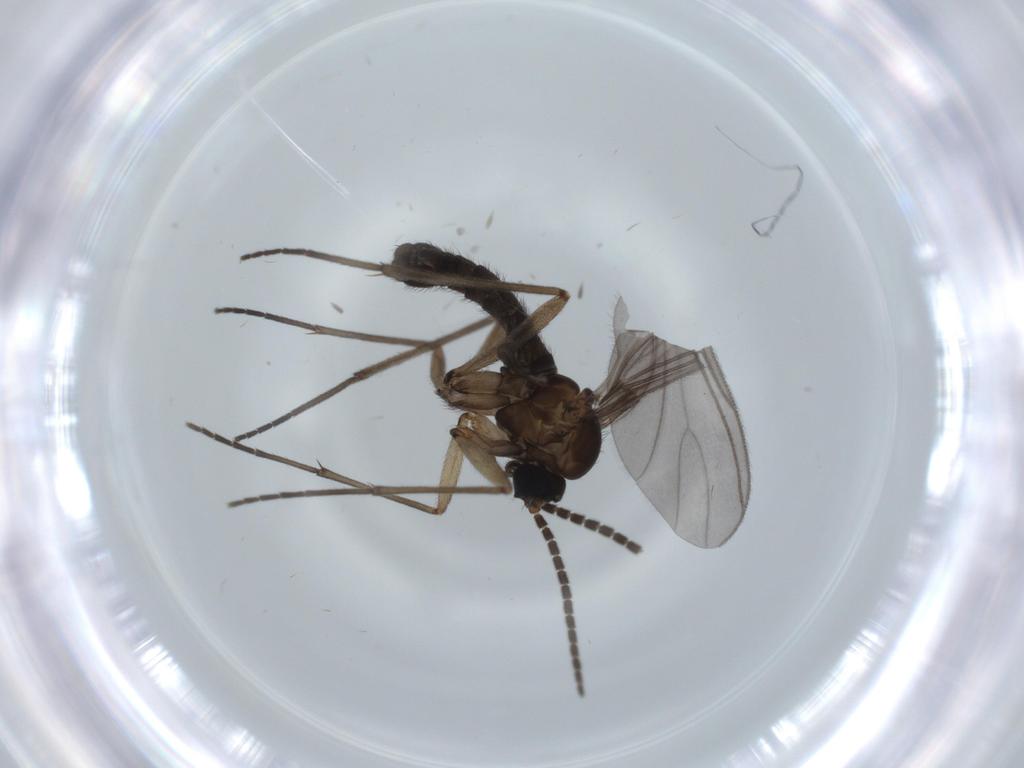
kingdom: Animalia
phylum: Arthropoda
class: Insecta
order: Diptera
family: Sciaridae
